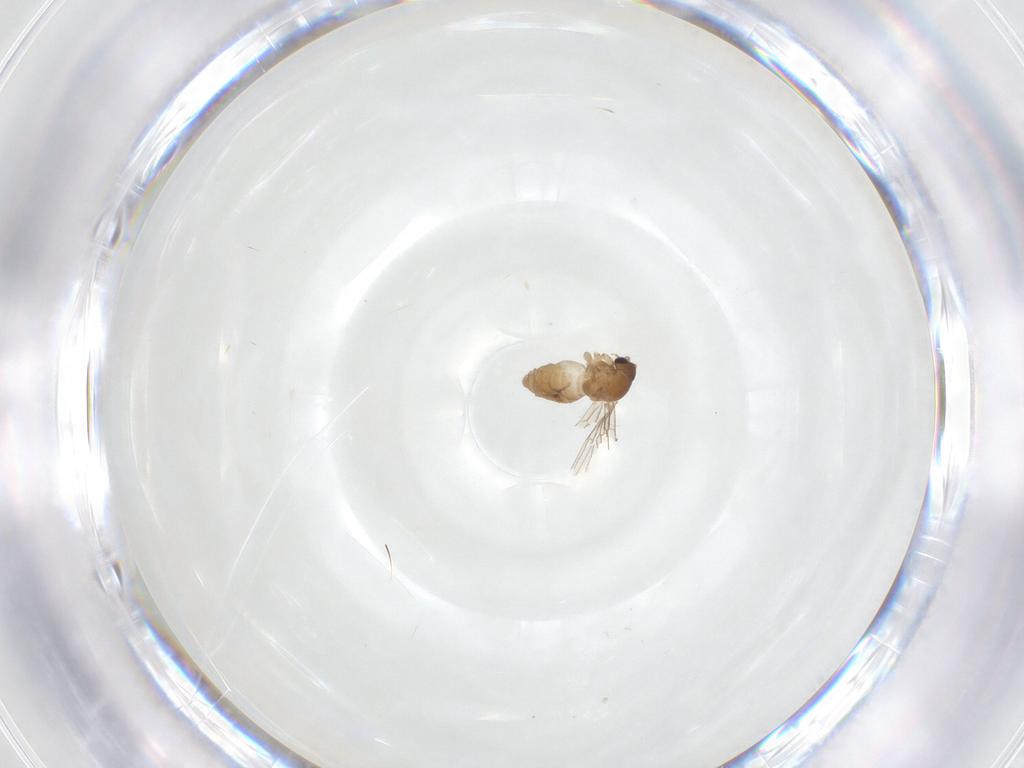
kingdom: Animalia
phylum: Arthropoda
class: Insecta
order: Diptera
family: Psychodidae
